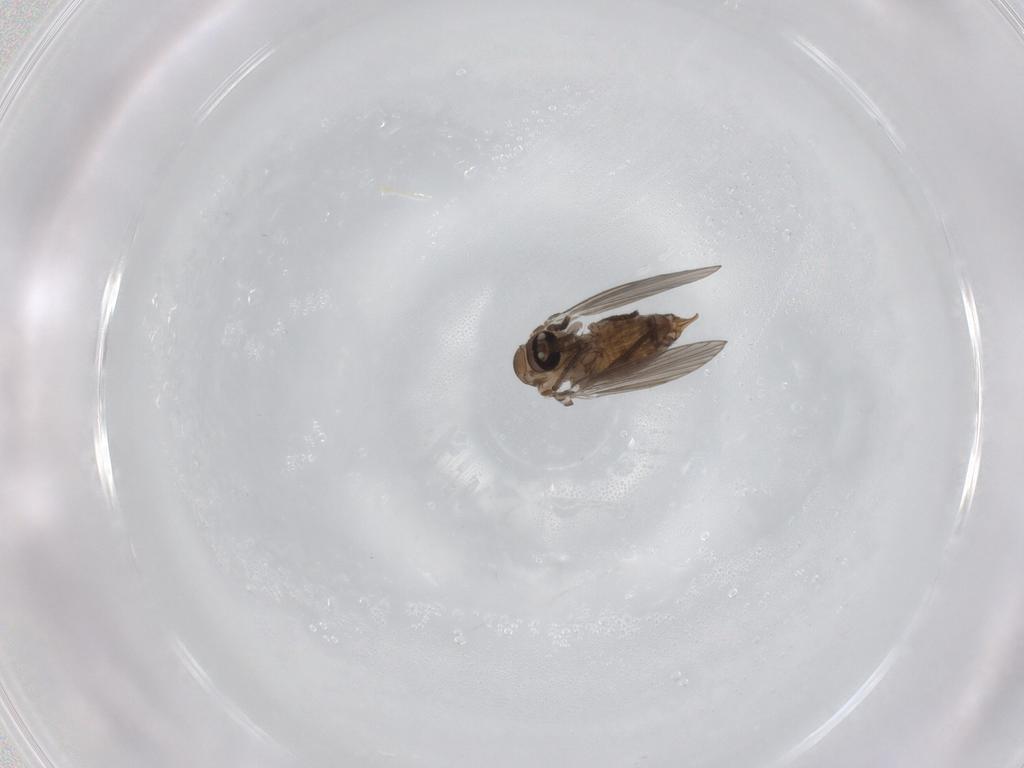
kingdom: Animalia
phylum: Arthropoda
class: Insecta
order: Diptera
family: Psychodidae
